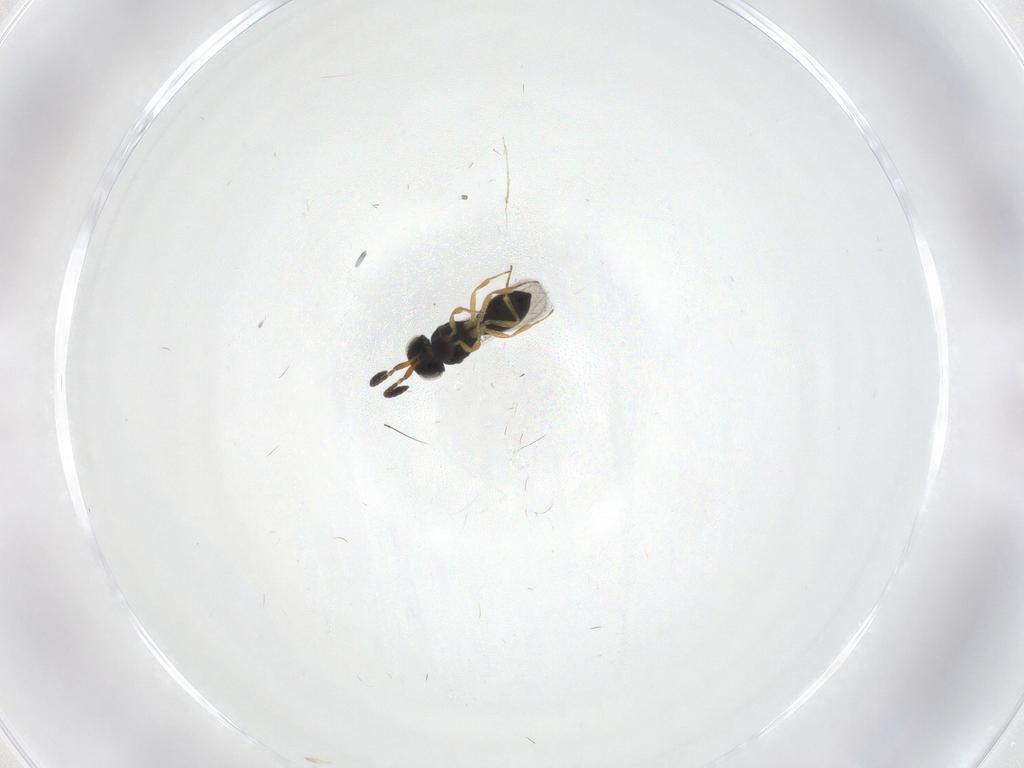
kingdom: Animalia
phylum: Arthropoda
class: Insecta
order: Hymenoptera
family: Scelionidae
